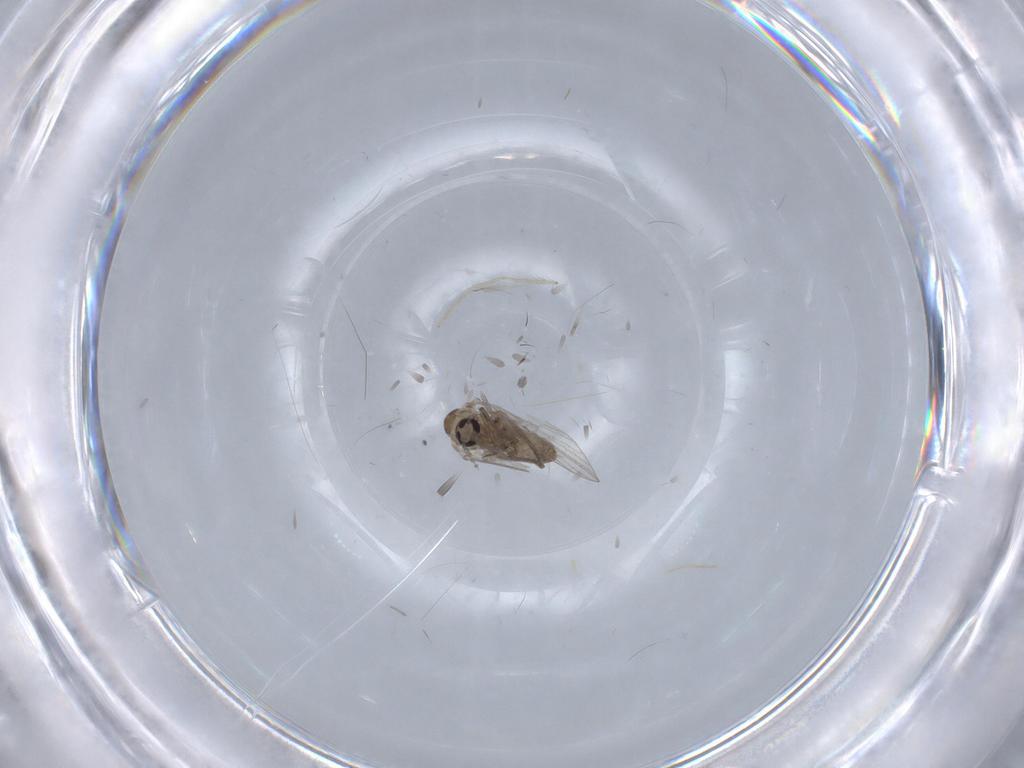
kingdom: Animalia
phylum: Arthropoda
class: Insecta
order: Diptera
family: Psychodidae
